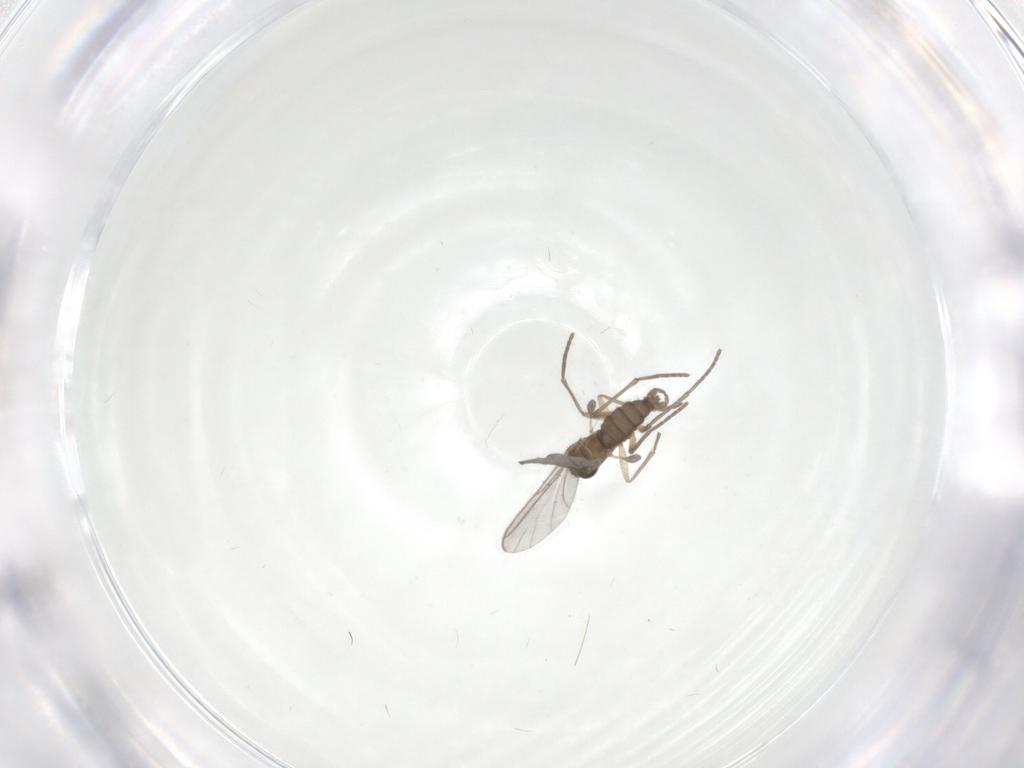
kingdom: Animalia
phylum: Arthropoda
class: Insecta
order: Diptera
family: Sciaridae
